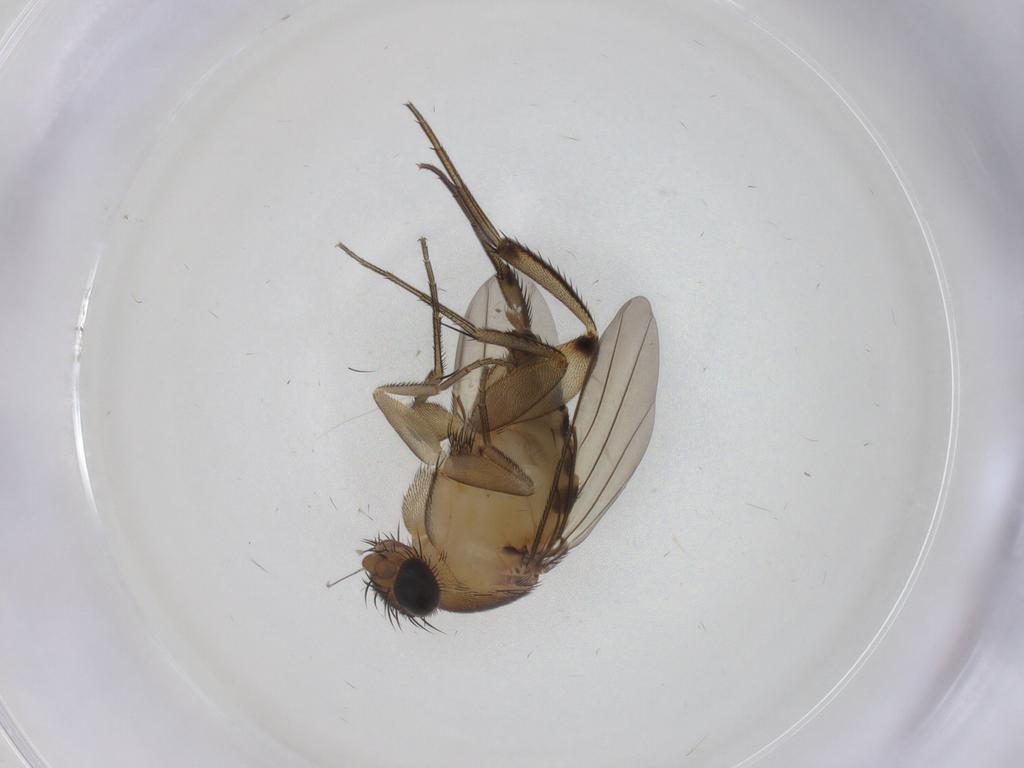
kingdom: Animalia
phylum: Arthropoda
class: Insecta
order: Diptera
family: Phoridae
